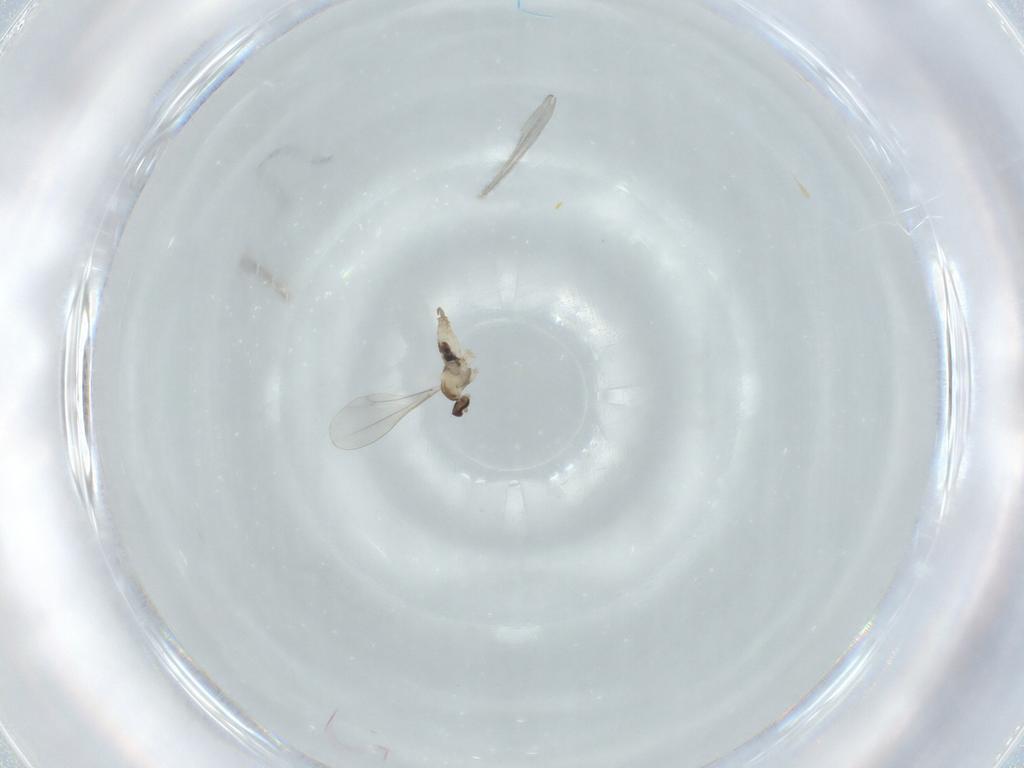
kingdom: Animalia
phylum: Arthropoda
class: Insecta
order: Diptera
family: Cecidomyiidae
